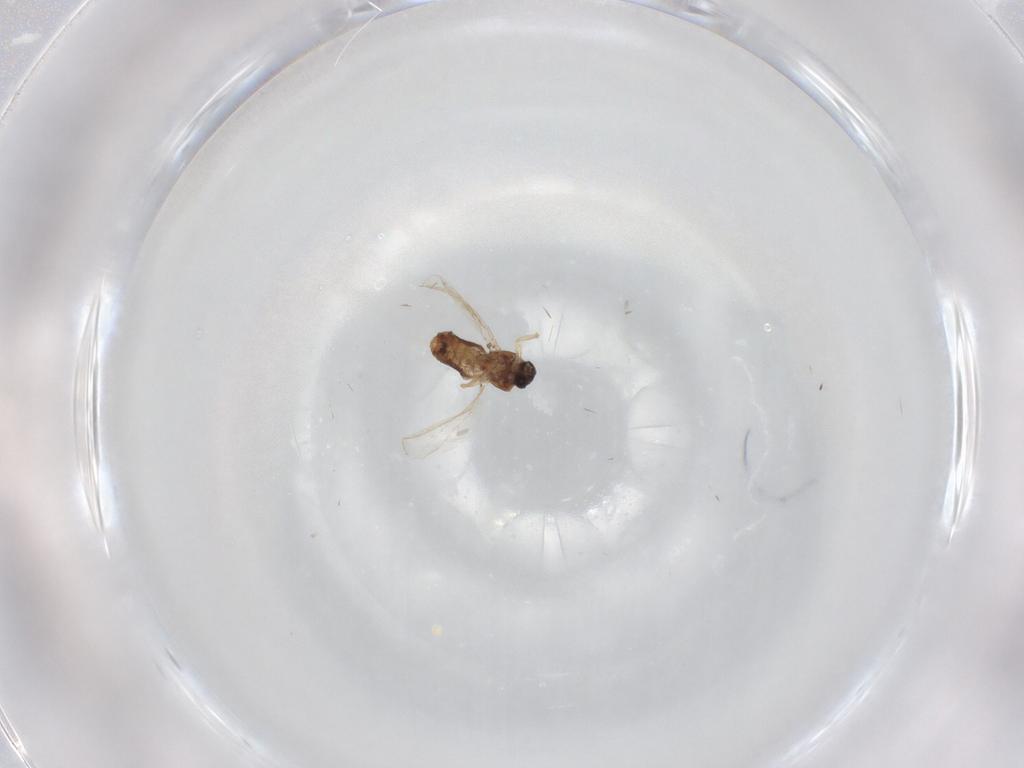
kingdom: Animalia
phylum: Arthropoda
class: Insecta
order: Diptera
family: Ceratopogonidae
